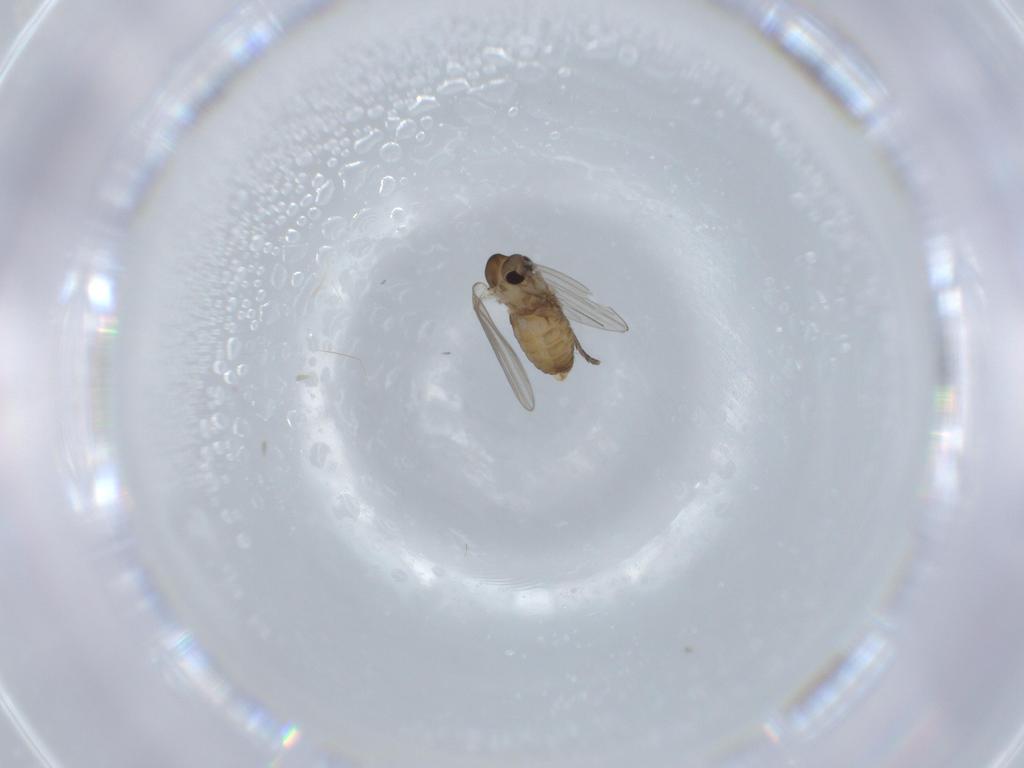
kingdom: Animalia
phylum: Arthropoda
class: Insecta
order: Diptera
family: Psychodidae
